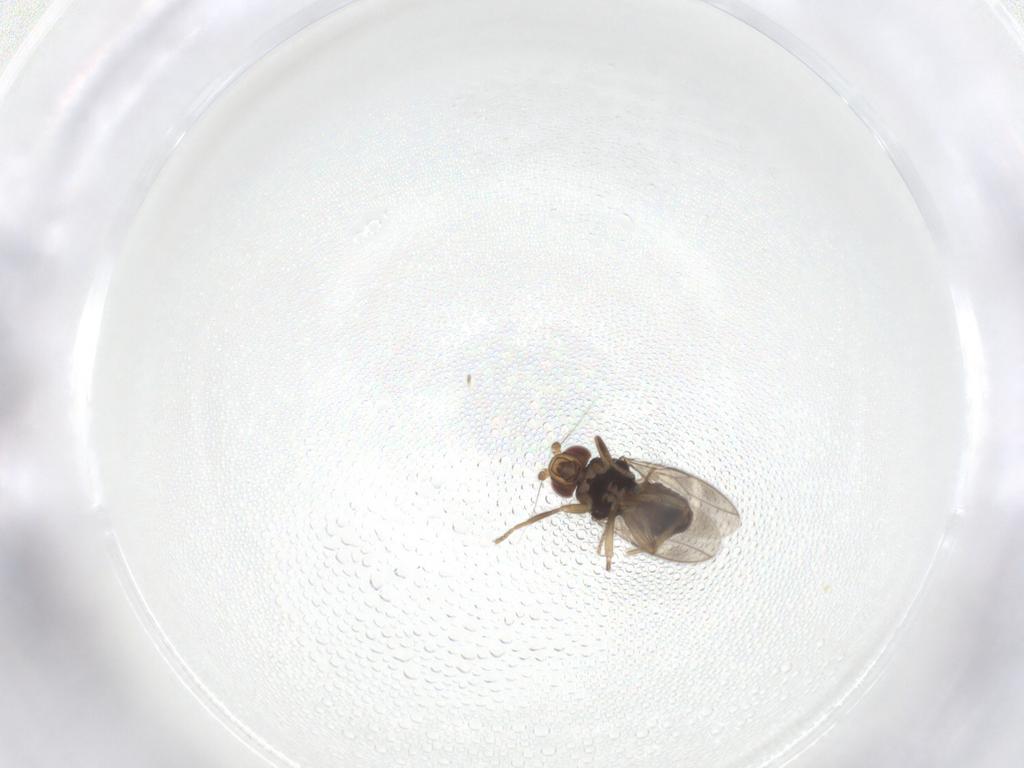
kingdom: Animalia
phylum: Arthropoda
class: Insecta
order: Diptera
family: Sphaeroceridae
